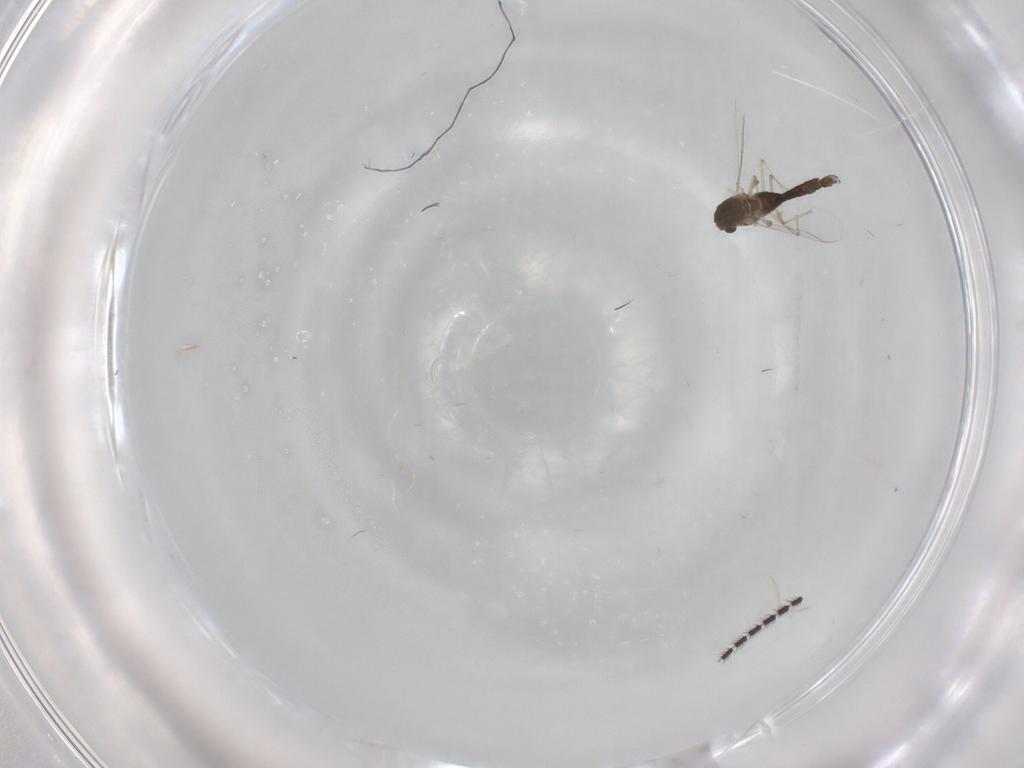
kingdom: Animalia
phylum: Arthropoda
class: Insecta
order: Diptera
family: Chironomidae
